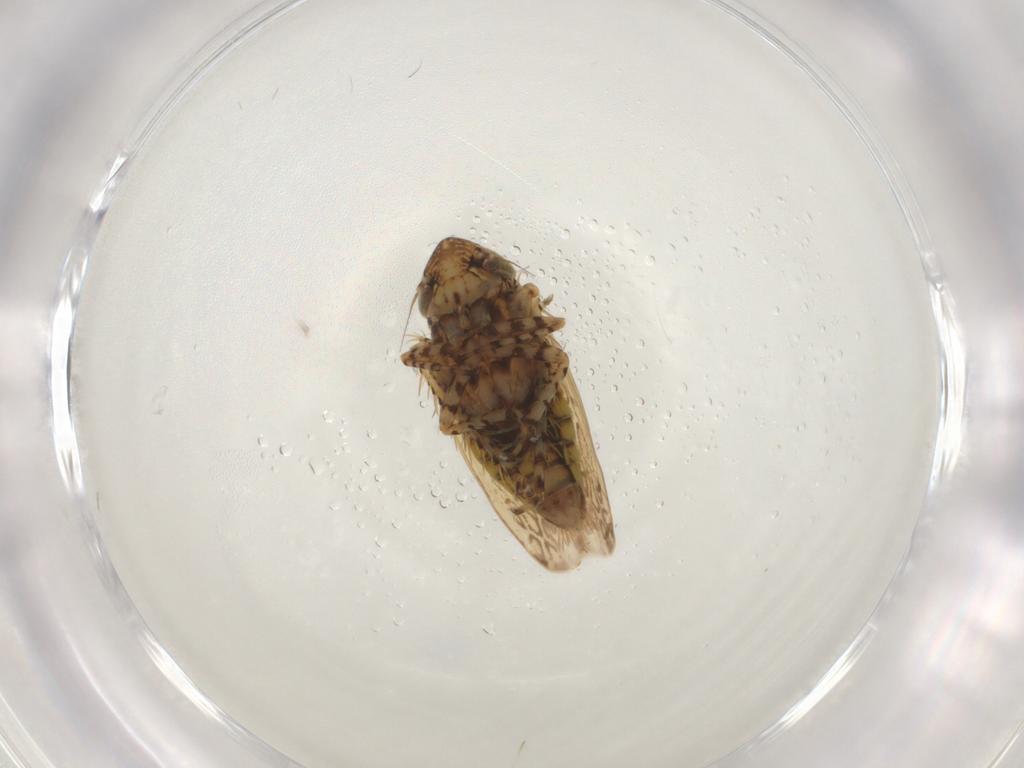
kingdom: Animalia
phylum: Arthropoda
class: Insecta
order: Hemiptera
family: Cicadellidae
